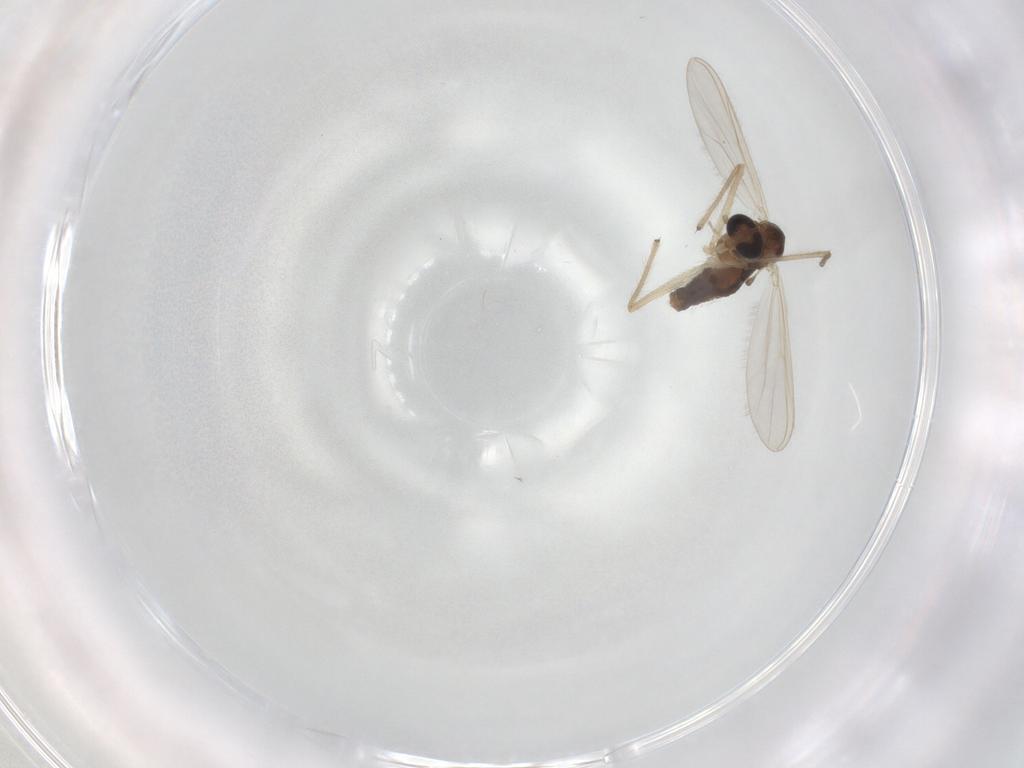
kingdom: Animalia
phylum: Arthropoda
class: Insecta
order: Diptera
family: Chironomidae
